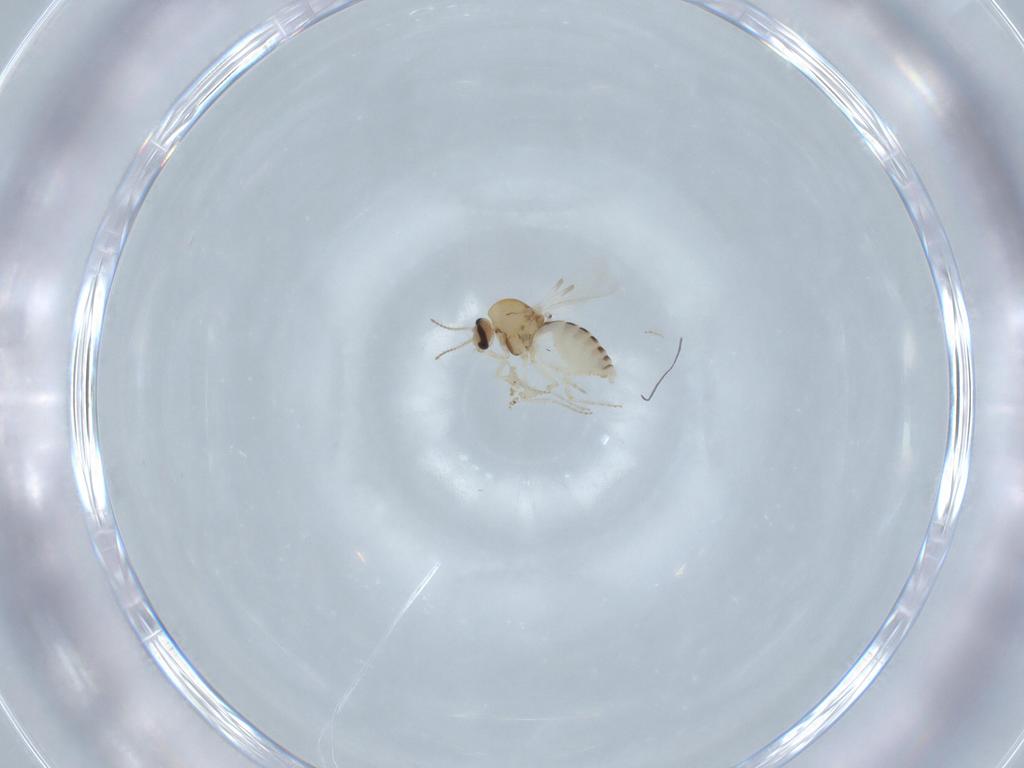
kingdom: Animalia
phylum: Arthropoda
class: Insecta
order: Diptera
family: Ceratopogonidae
